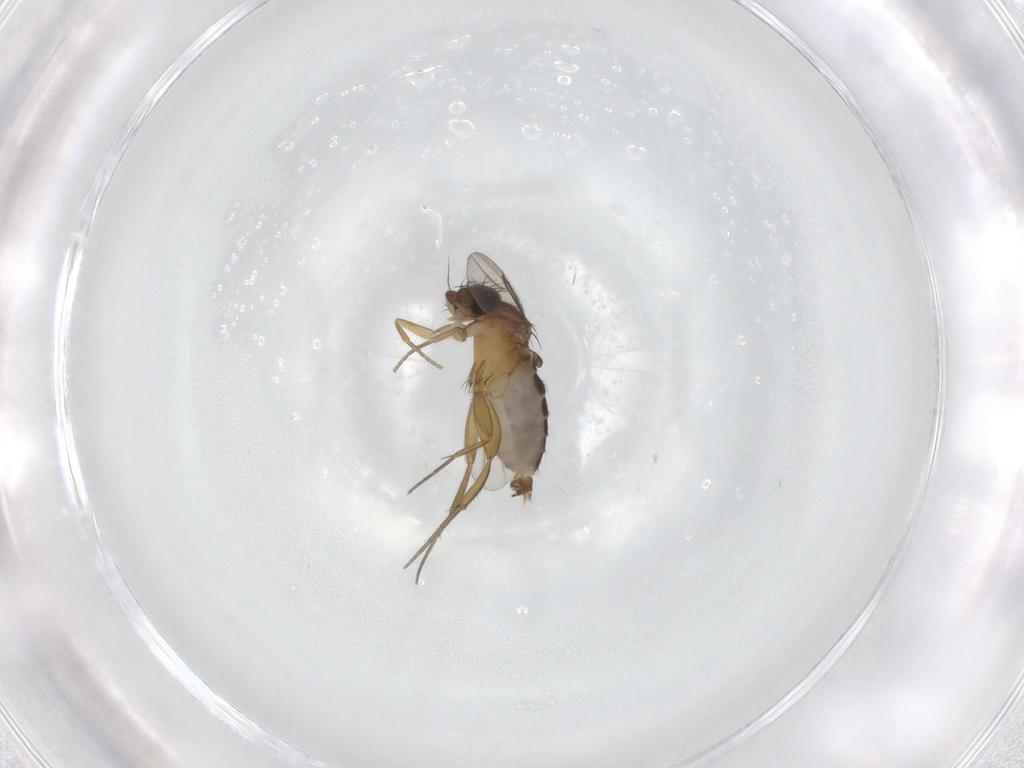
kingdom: Animalia
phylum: Arthropoda
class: Insecta
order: Diptera
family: Phoridae
